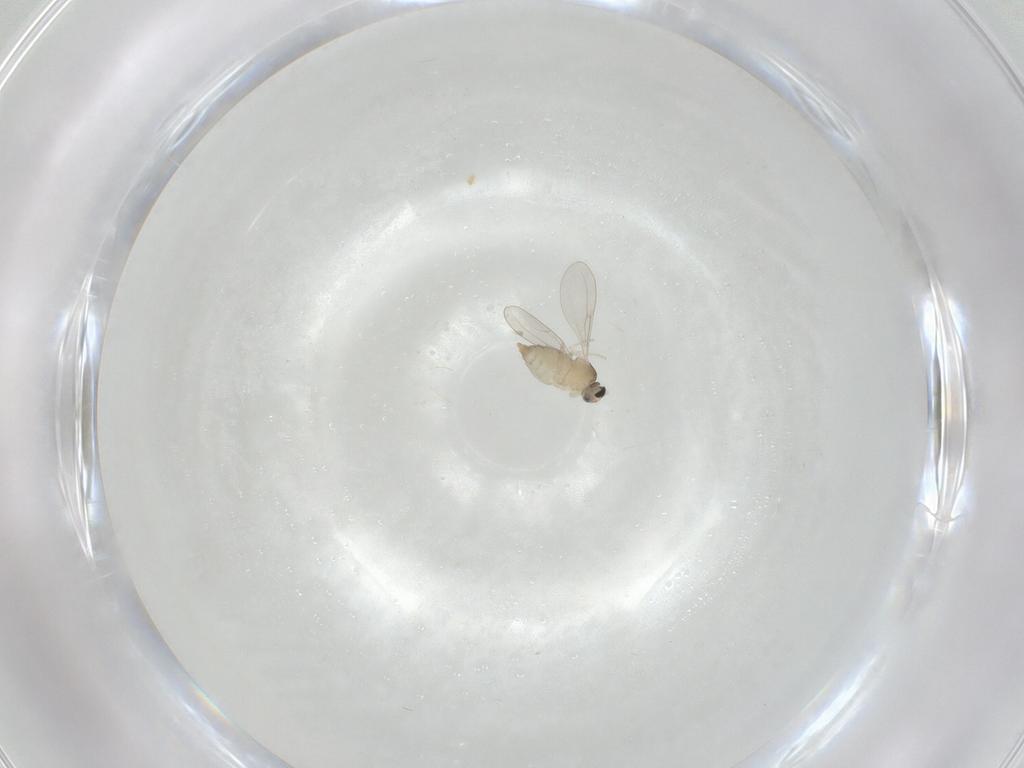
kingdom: Animalia
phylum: Arthropoda
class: Insecta
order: Diptera
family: Cecidomyiidae
